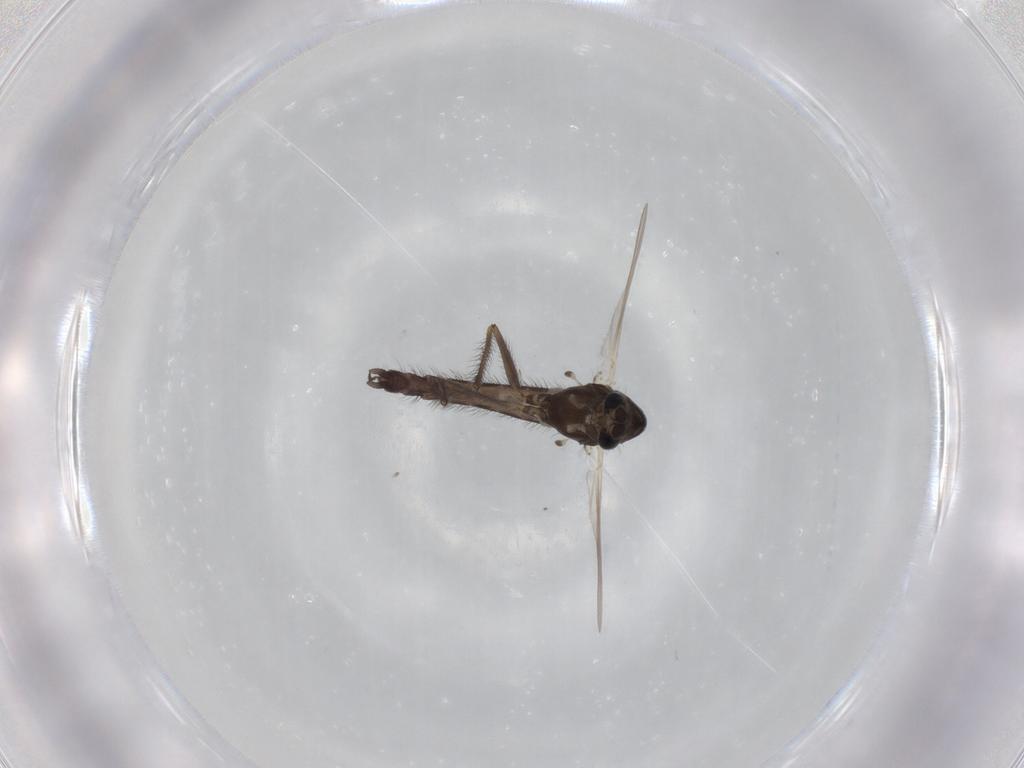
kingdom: Animalia
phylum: Arthropoda
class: Insecta
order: Diptera
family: Chironomidae
